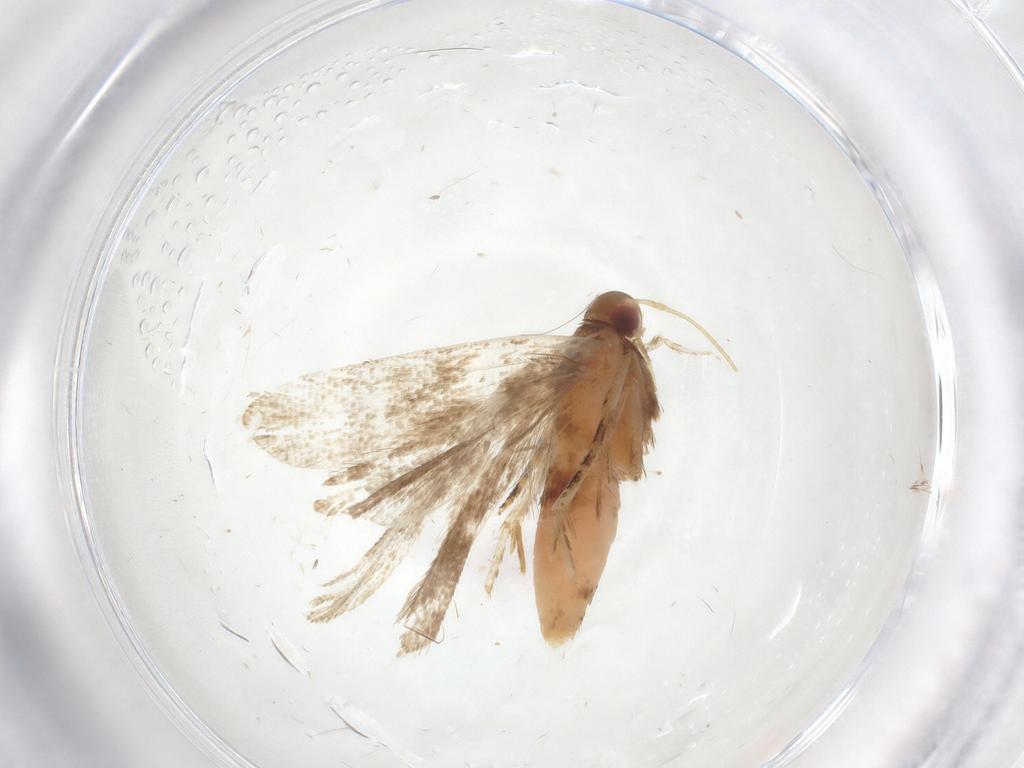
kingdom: Animalia
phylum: Arthropoda
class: Insecta
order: Lepidoptera
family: Gelechiidae
